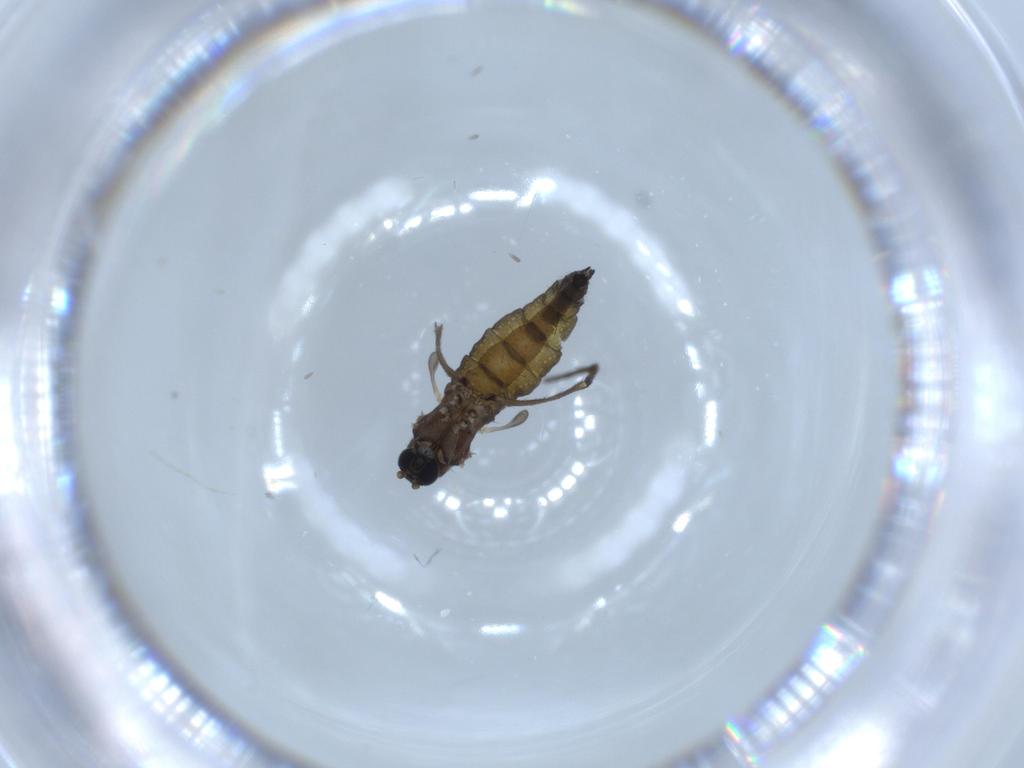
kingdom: Animalia
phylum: Arthropoda
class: Insecta
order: Diptera
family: Sciaridae
